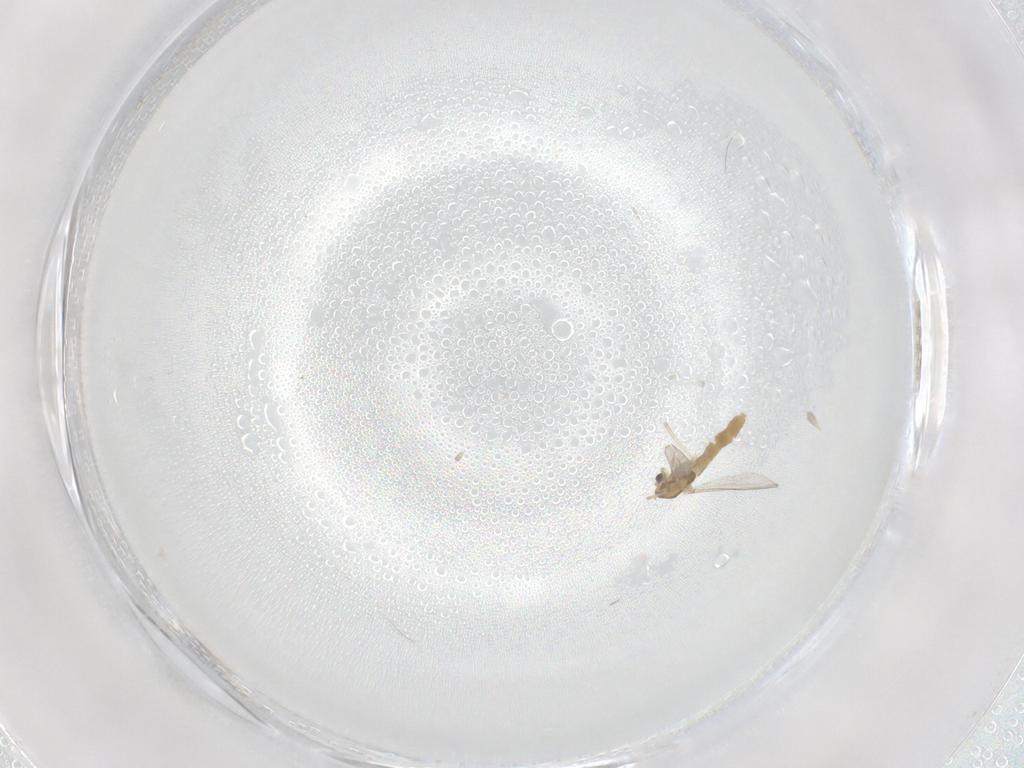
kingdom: Animalia
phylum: Arthropoda
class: Insecta
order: Diptera
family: Chironomidae
